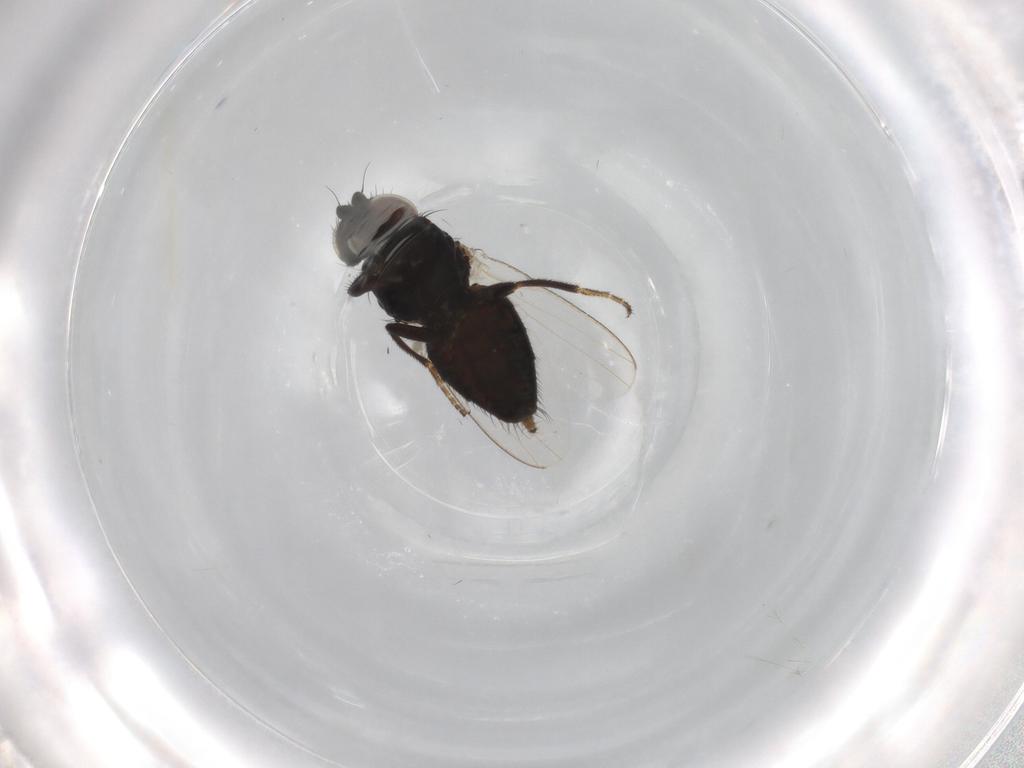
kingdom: Animalia
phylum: Arthropoda
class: Insecta
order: Diptera
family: Milichiidae
